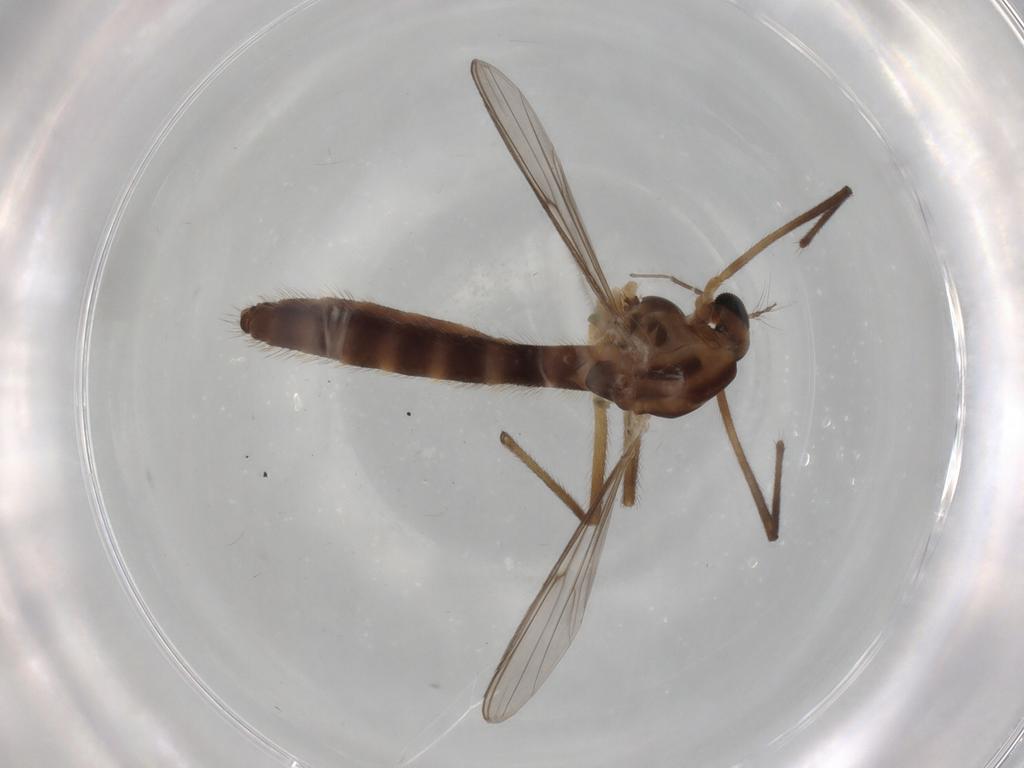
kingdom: Animalia
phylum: Arthropoda
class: Insecta
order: Diptera
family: Chironomidae
